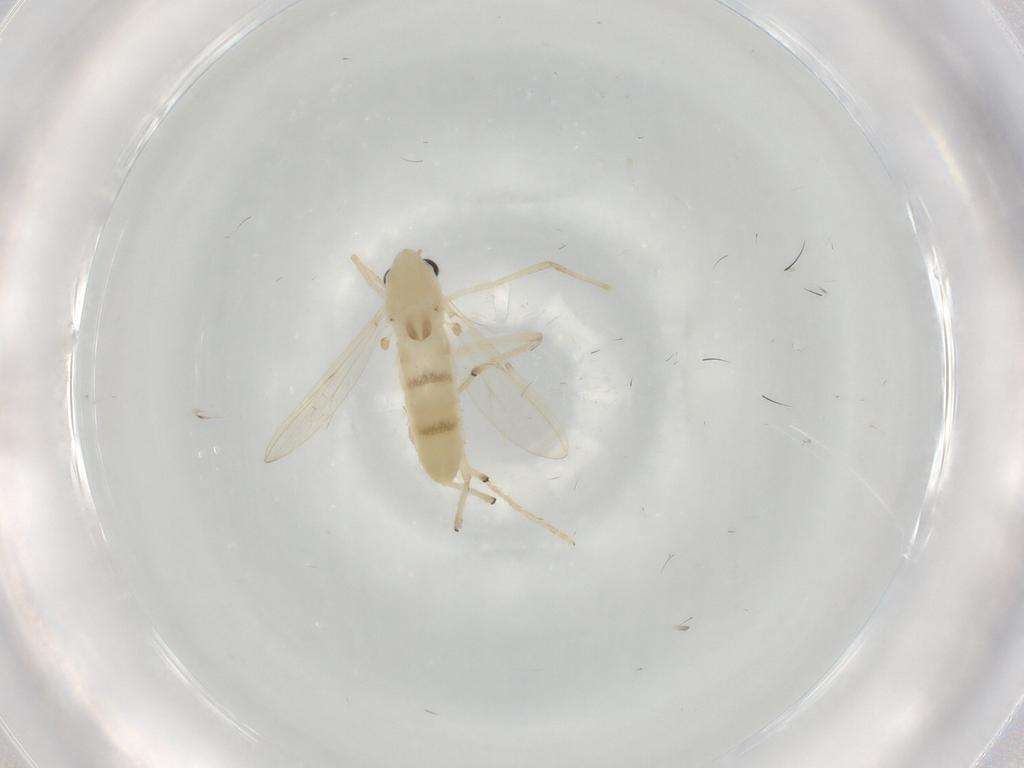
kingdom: Animalia
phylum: Arthropoda
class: Insecta
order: Diptera
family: Chironomidae
